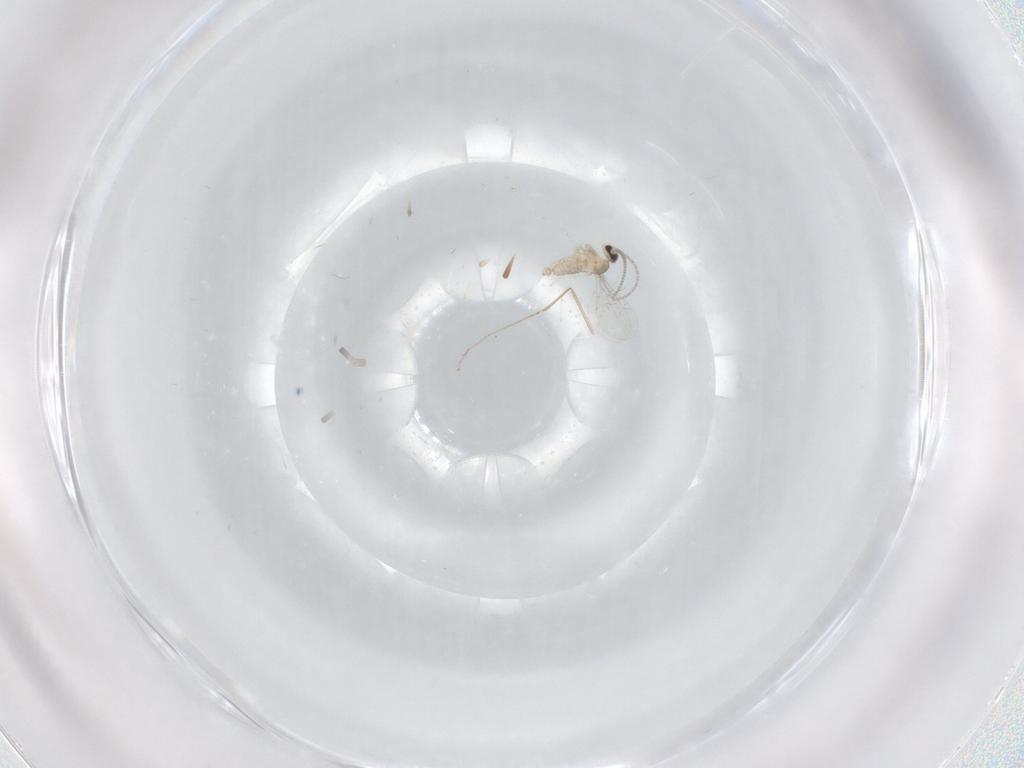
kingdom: Animalia
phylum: Arthropoda
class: Insecta
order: Diptera
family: Cecidomyiidae
